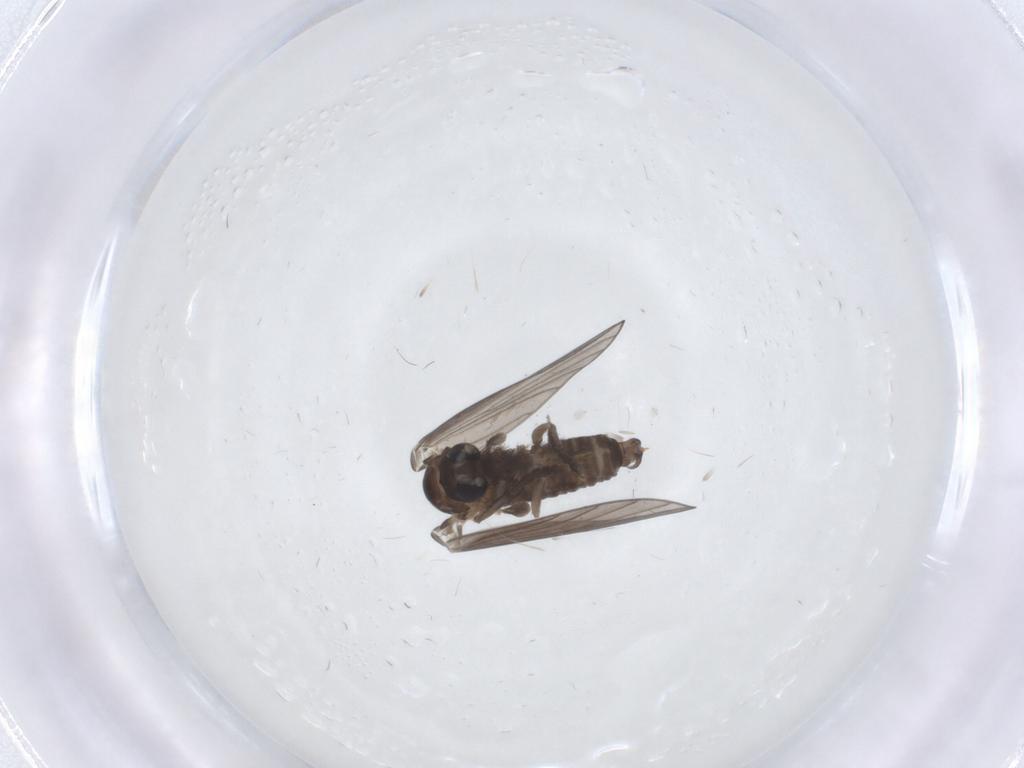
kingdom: Animalia
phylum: Arthropoda
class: Insecta
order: Diptera
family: Psychodidae
